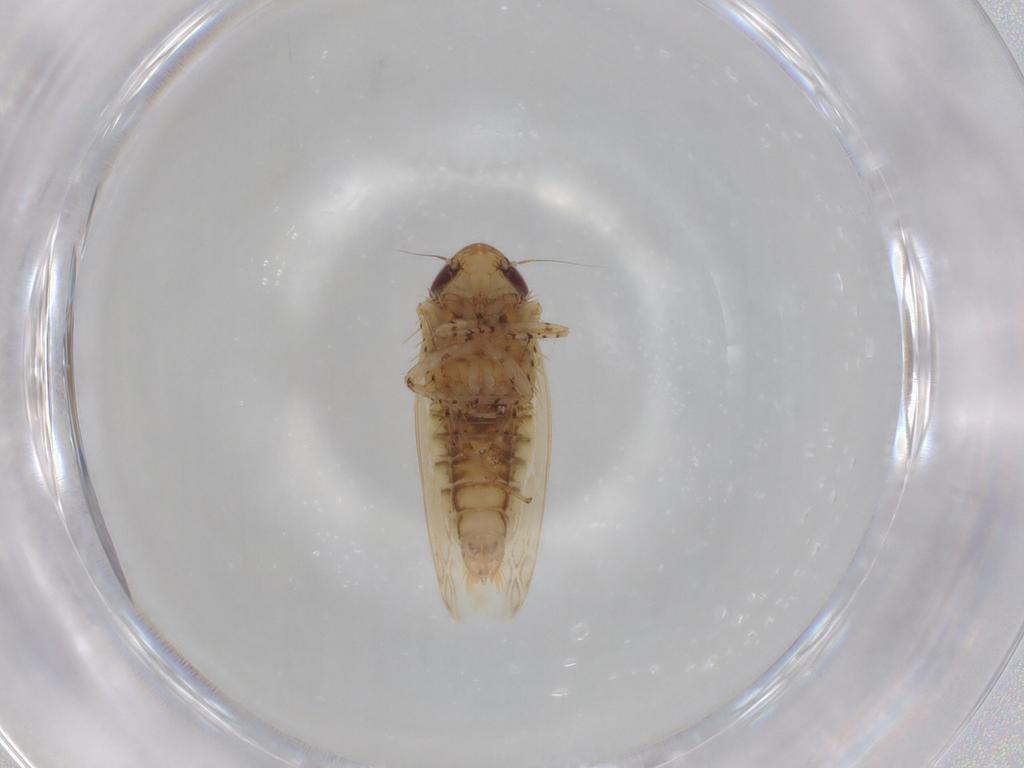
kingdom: Animalia
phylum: Arthropoda
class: Insecta
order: Hemiptera
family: Cicadellidae
